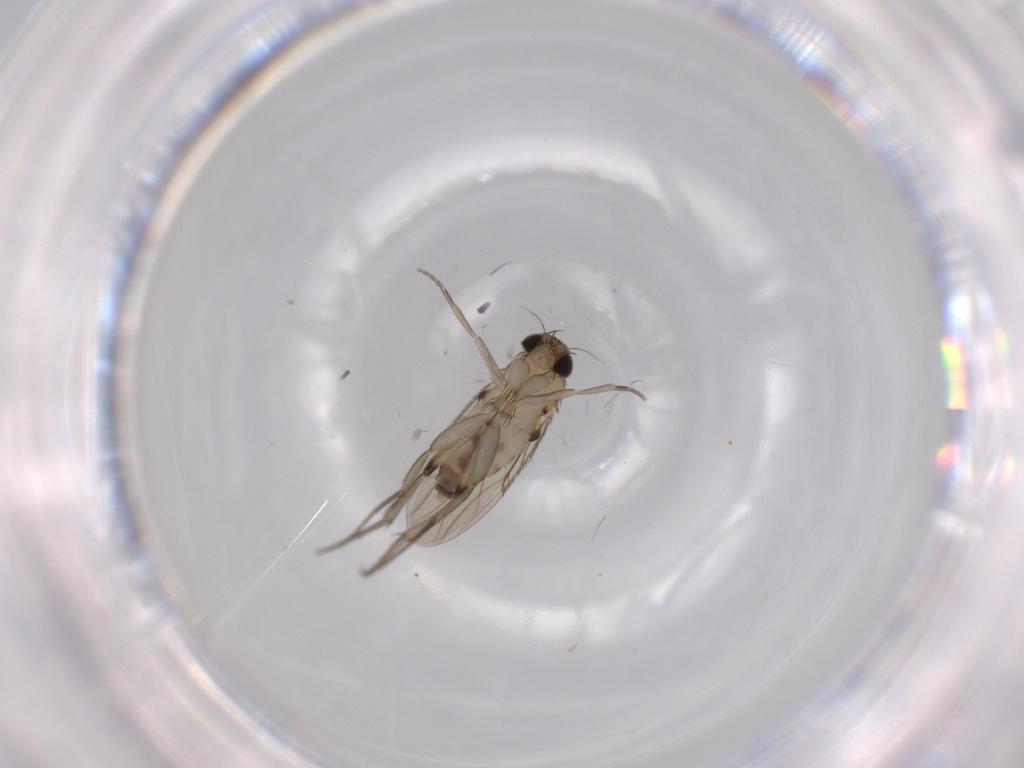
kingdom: Animalia
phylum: Arthropoda
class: Insecta
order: Diptera
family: Phoridae
